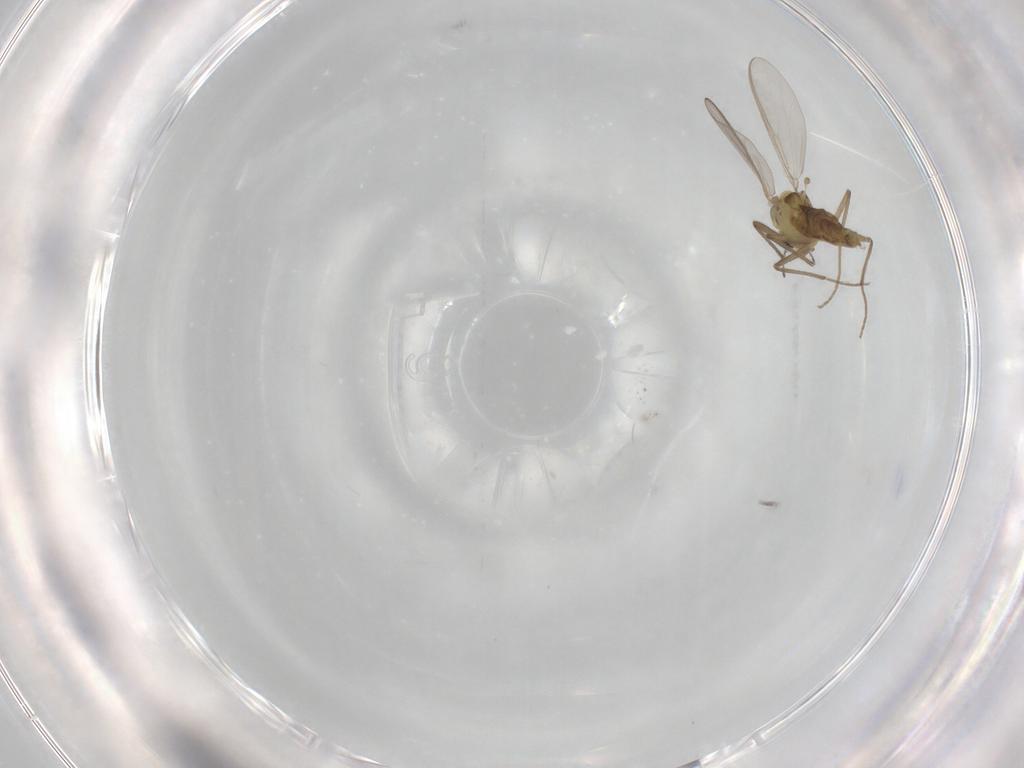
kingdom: Animalia
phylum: Arthropoda
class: Insecta
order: Diptera
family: Chironomidae
